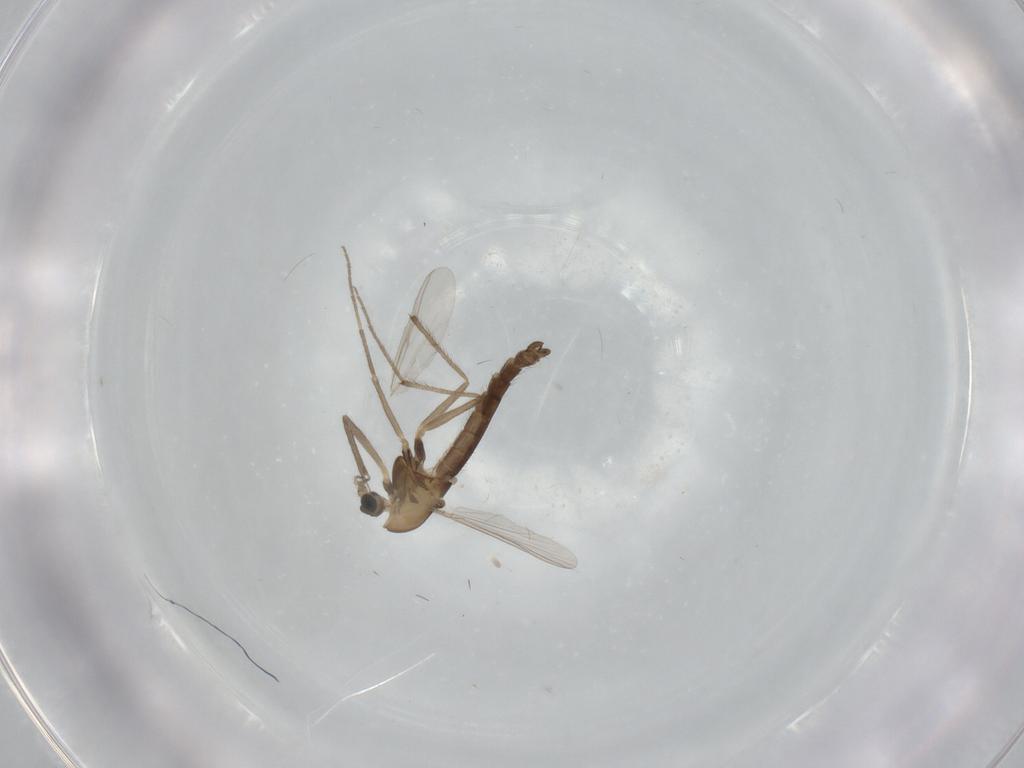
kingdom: Animalia
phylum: Arthropoda
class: Insecta
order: Diptera
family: Chironomidae
